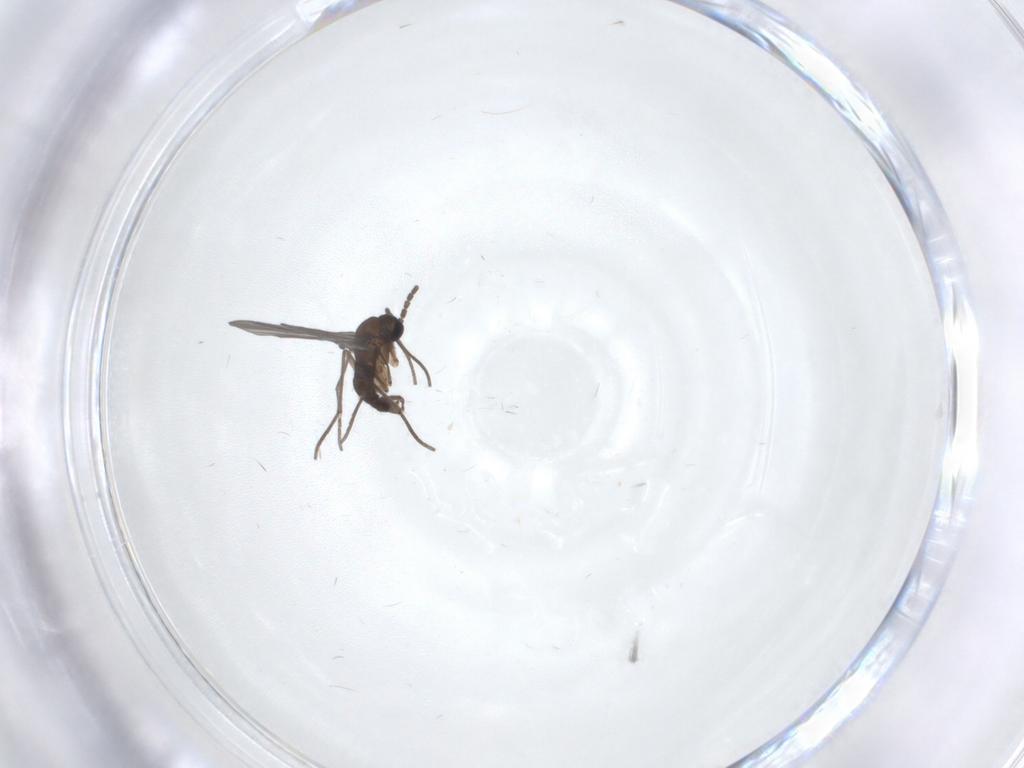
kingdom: Animalia
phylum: Arthropoda
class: Insecta
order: Diptera
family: Sciaridae
